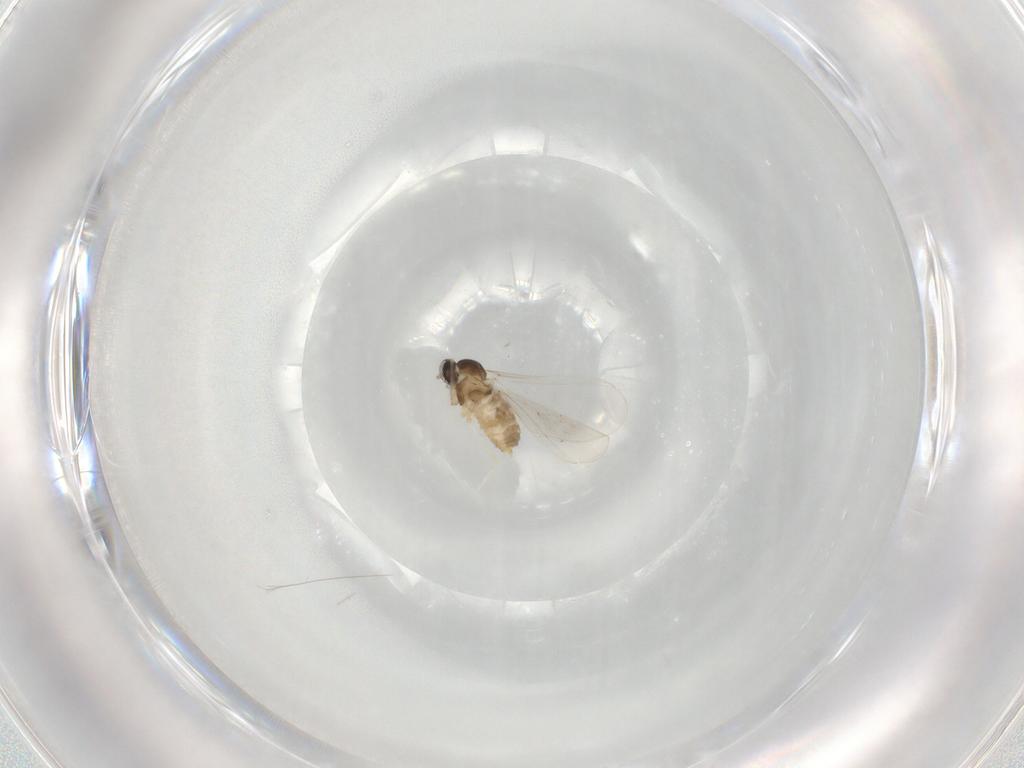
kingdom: Animalia
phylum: Arthropoda
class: Insecta
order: Diptera
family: Cecidomyiidae
